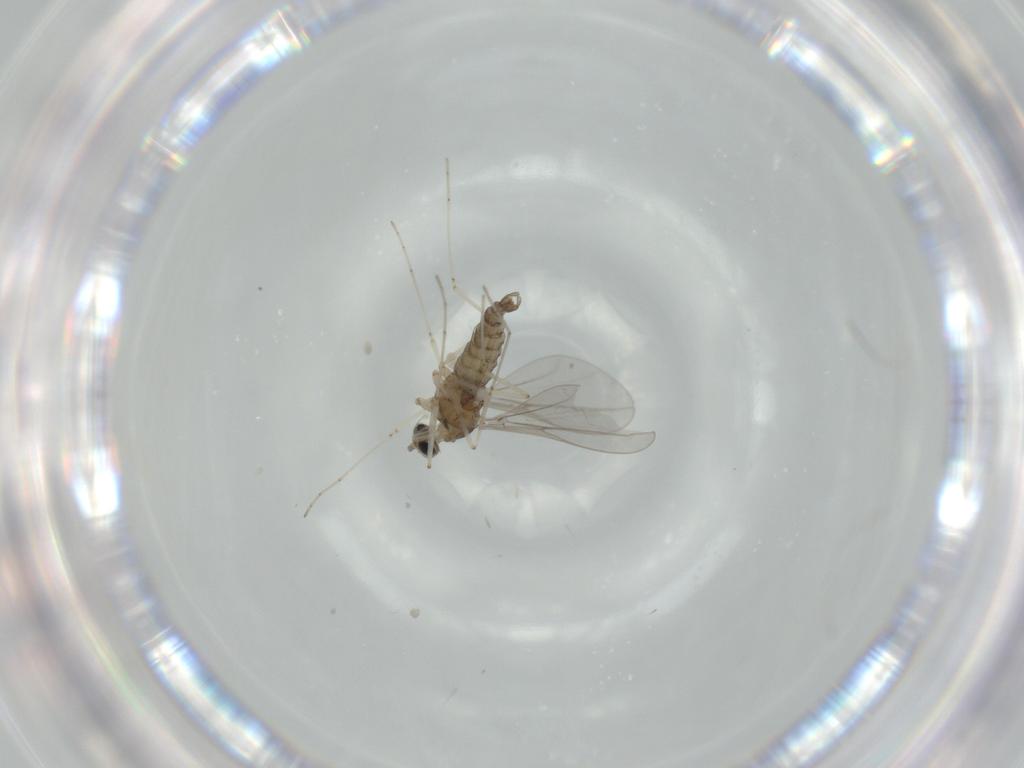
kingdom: Animalia
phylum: Arthropoda
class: Insecta
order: Diptera
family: Cecidomyiidae
